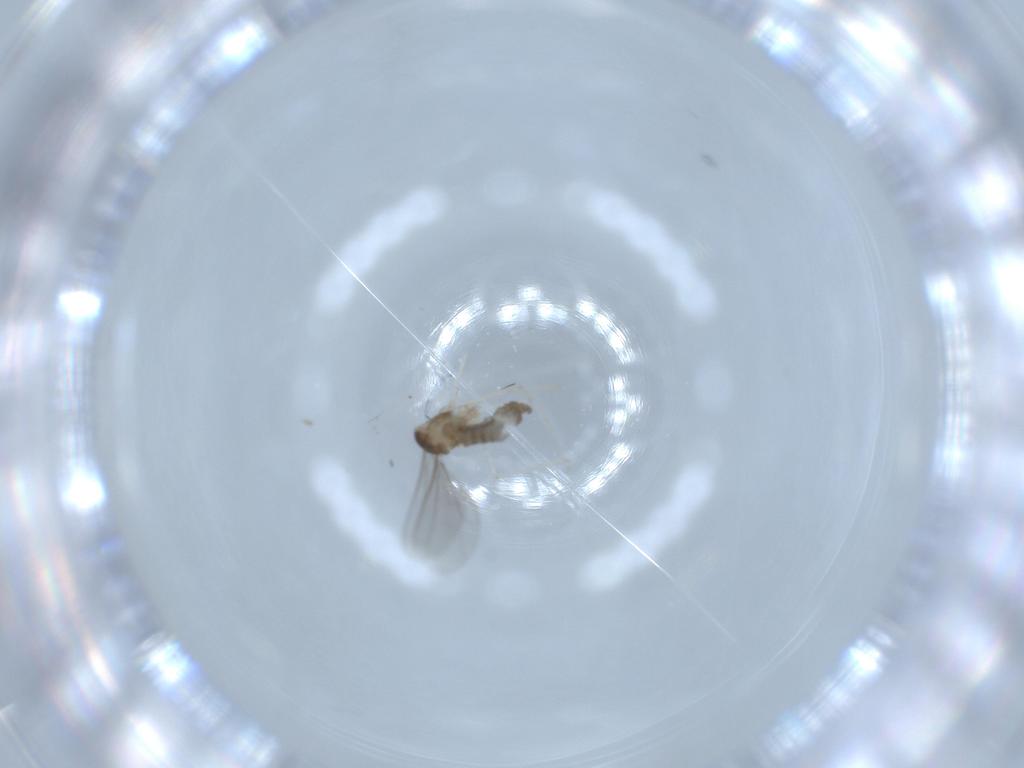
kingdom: Animalia
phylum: Arthropoda
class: Insecta
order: Diptera
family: Cecidomyiidae
